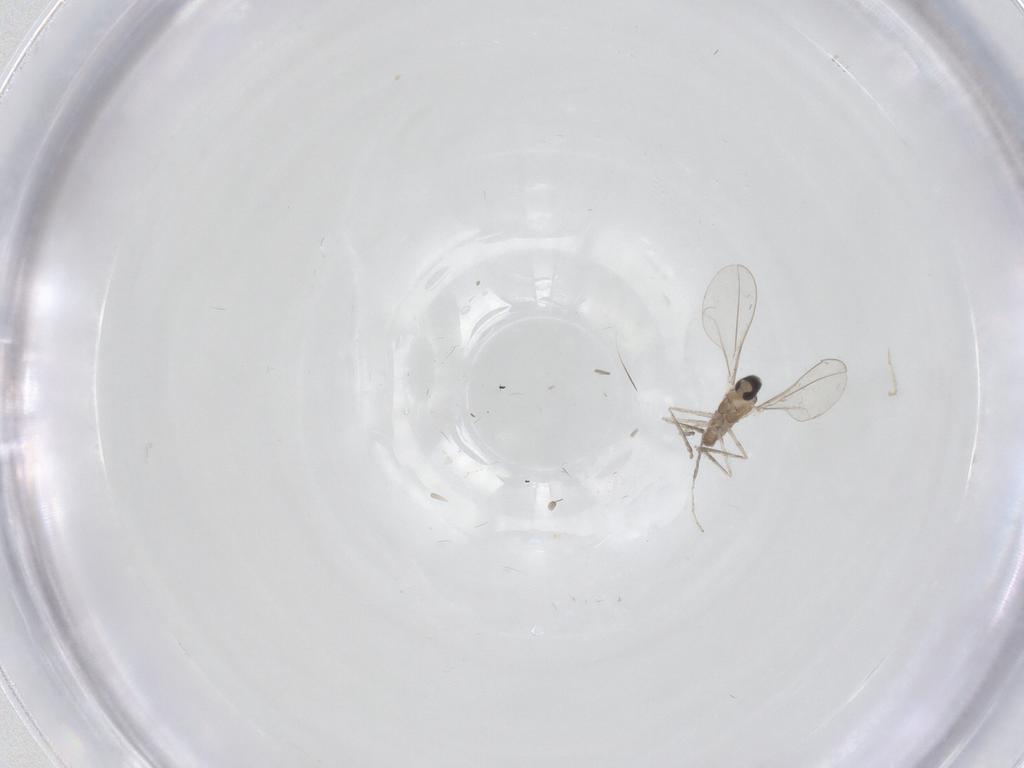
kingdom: Animalia
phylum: Arthropoda
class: Insecta
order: Diptera
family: Cecidomyiidae
